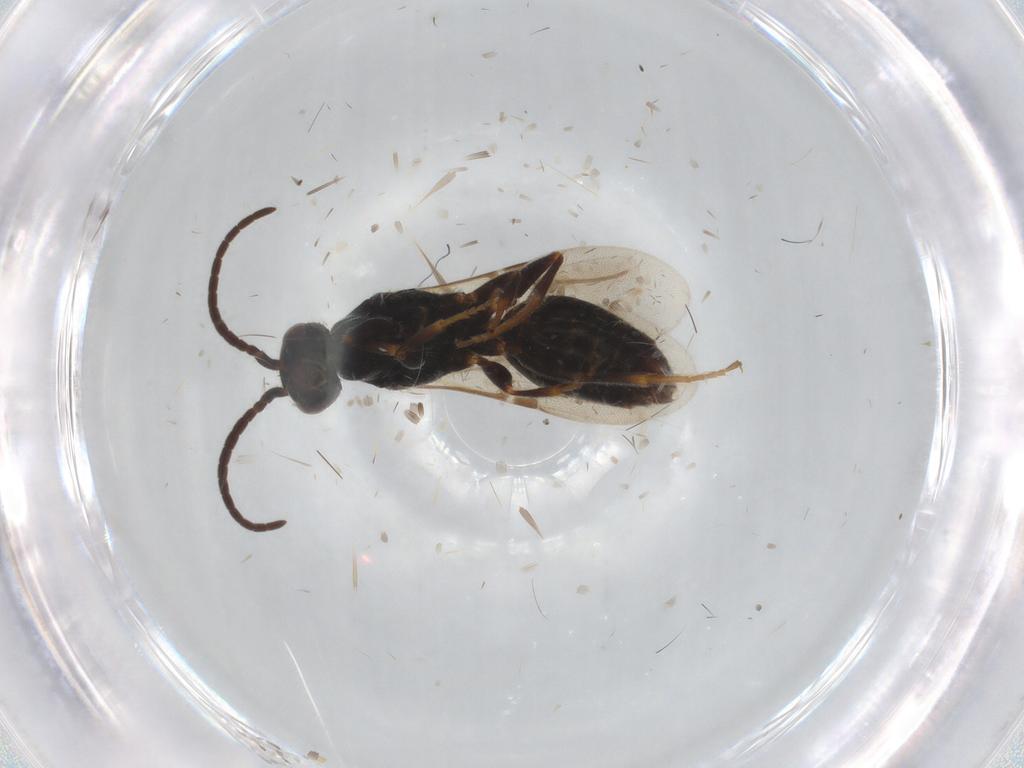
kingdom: Animalia
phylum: Arthropoda
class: Insecta
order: Hymenoptera
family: Bethylidae
